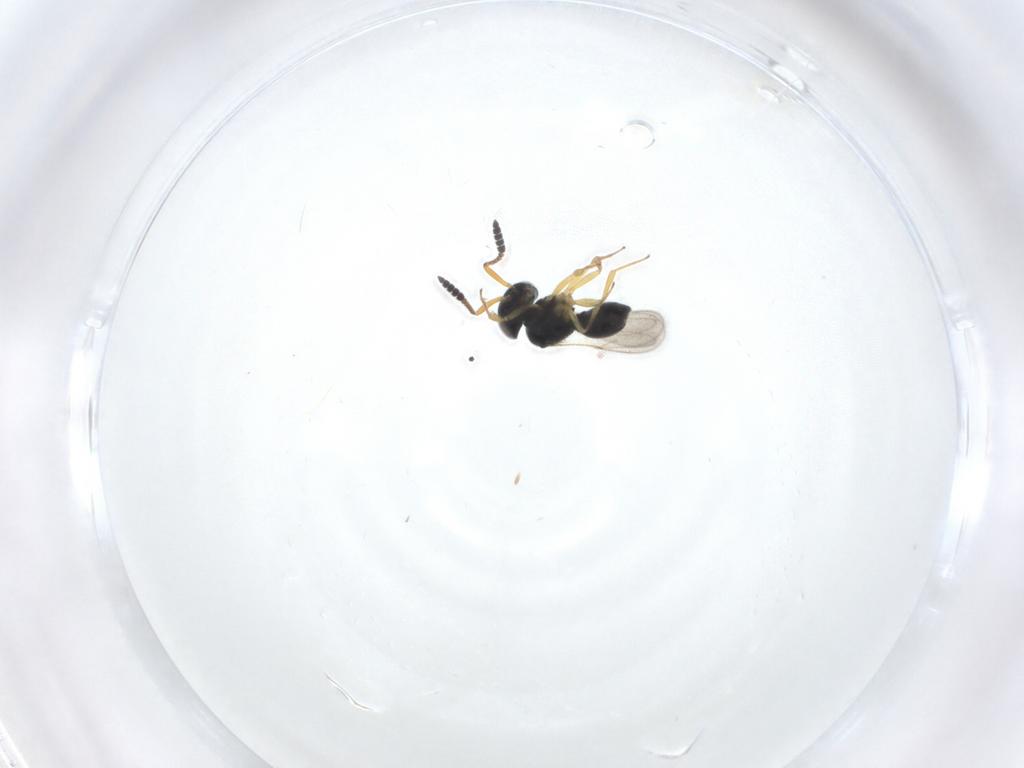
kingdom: Animalia
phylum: Arthropoda
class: Insecta
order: Hymenoptera
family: Scelionidae
